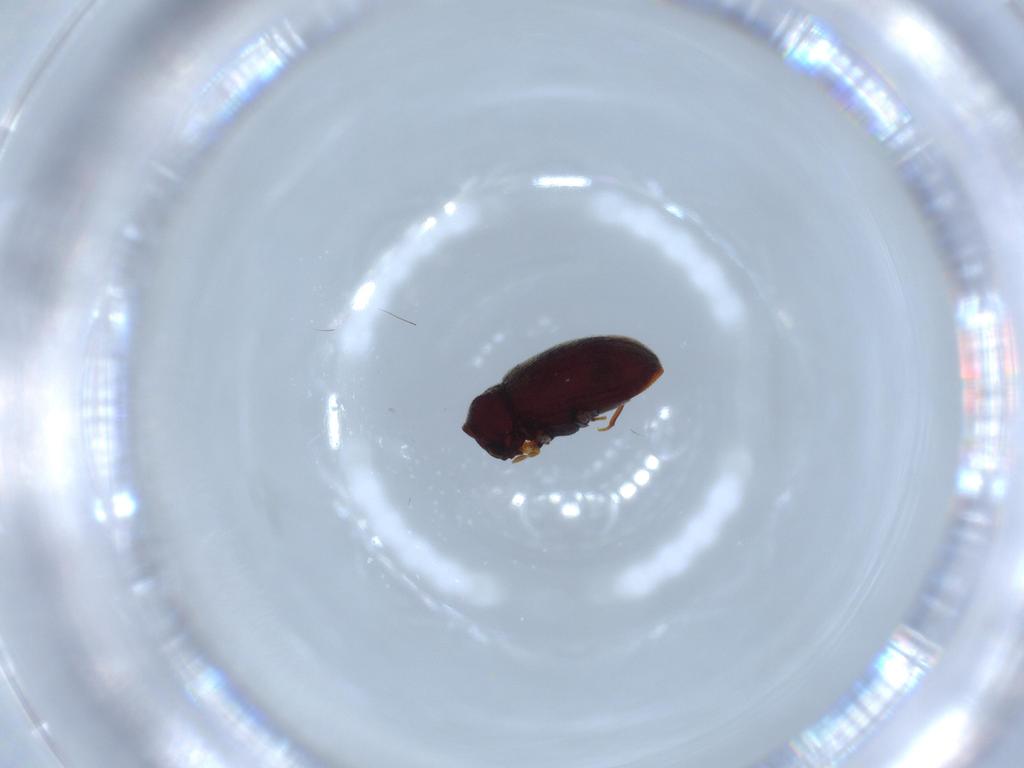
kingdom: Animalia
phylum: Arthropoda
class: Insecta
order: Coleoptera
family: Anobiidae
